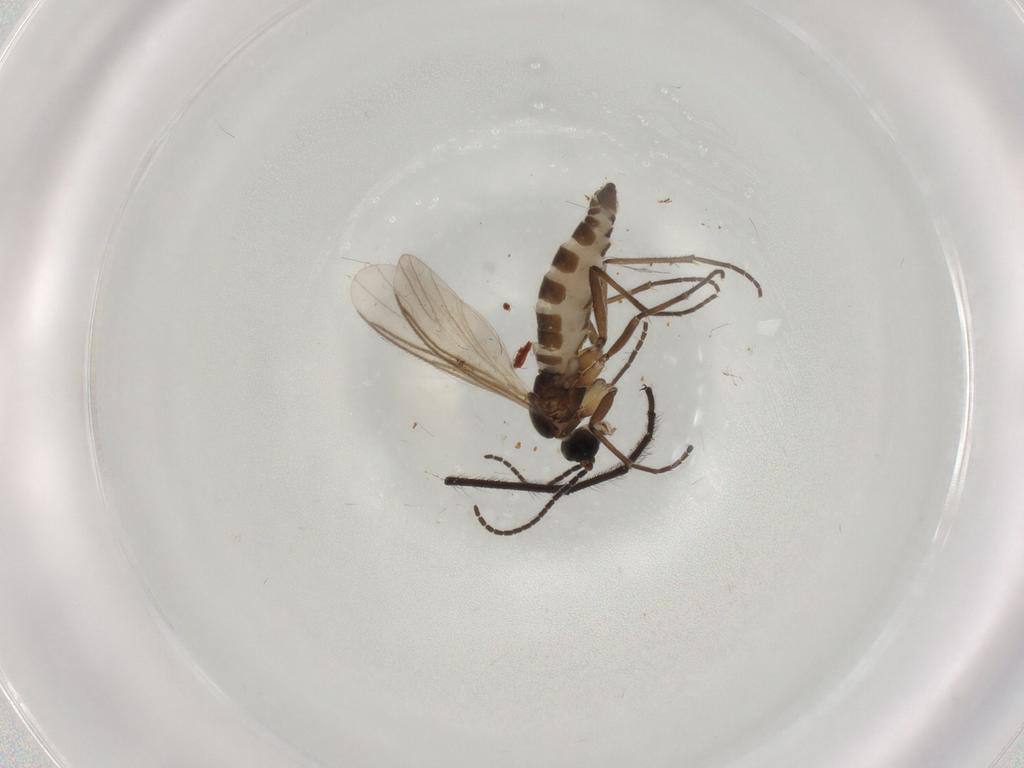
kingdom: Animalia
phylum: Arthropoda
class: Insecta
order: Diptera
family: Sciaridae
